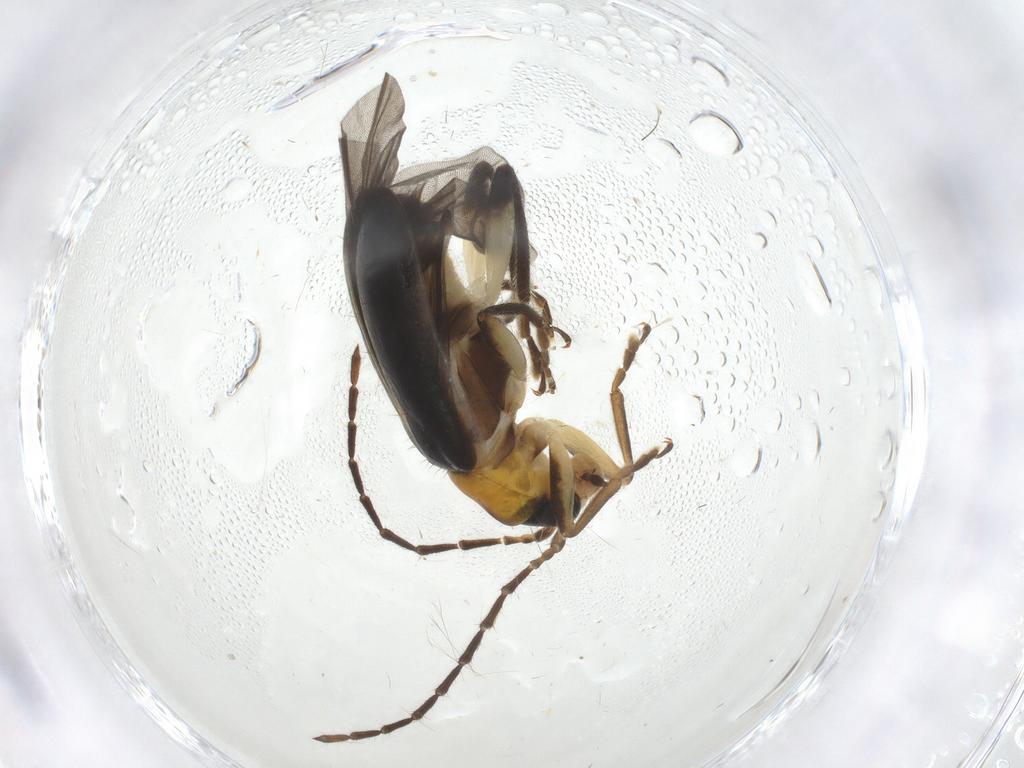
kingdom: Animalia
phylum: Arthropoda
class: Insecta
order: Coleoptera
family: Chrysomelidae
